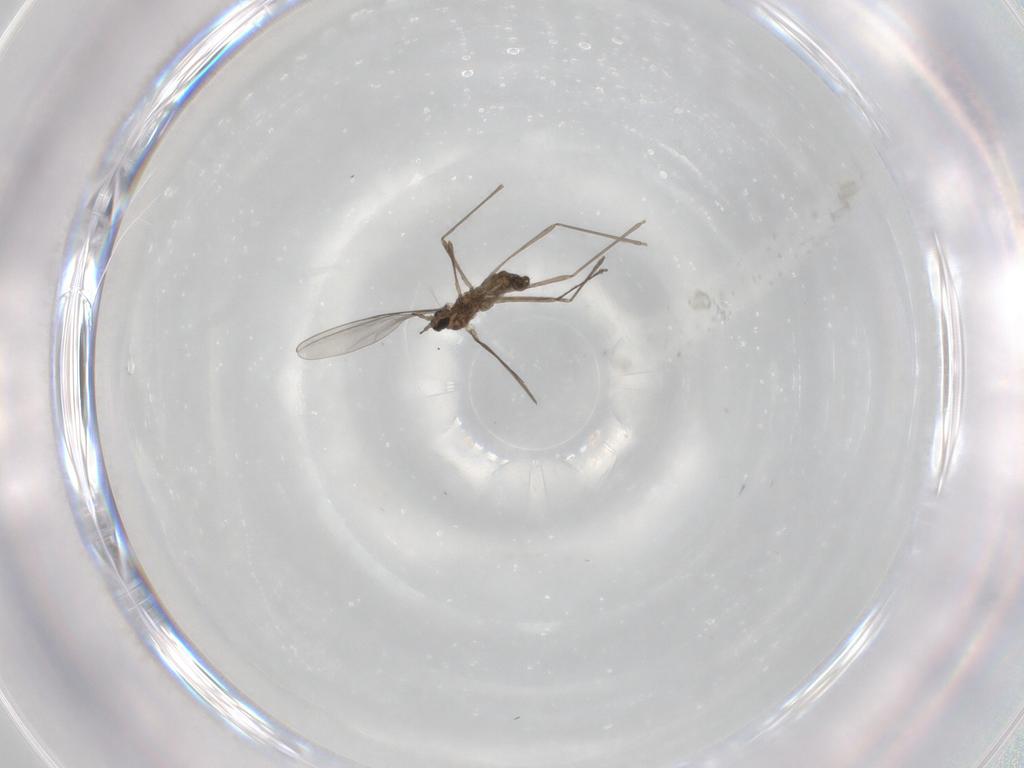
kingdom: Animalia
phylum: Arthropoda
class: Insecta
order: Diptera
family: Cecidomyiidae
